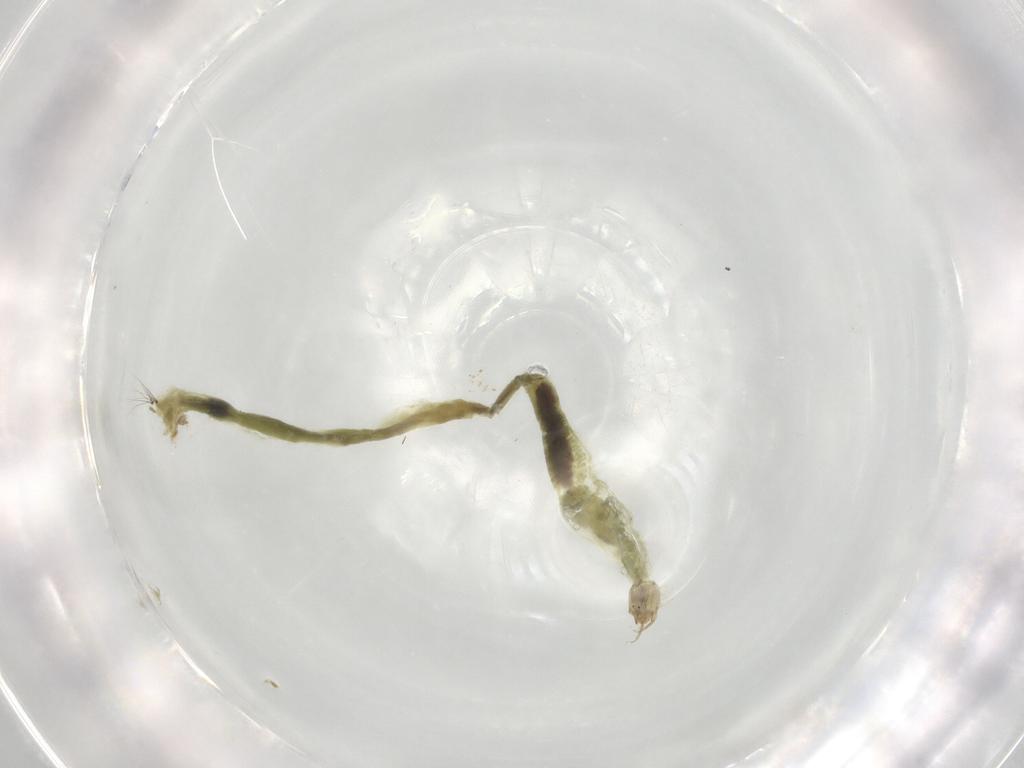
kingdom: Animalia
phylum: Arthropoda
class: Insecta
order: Diptera
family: Chironomidae
